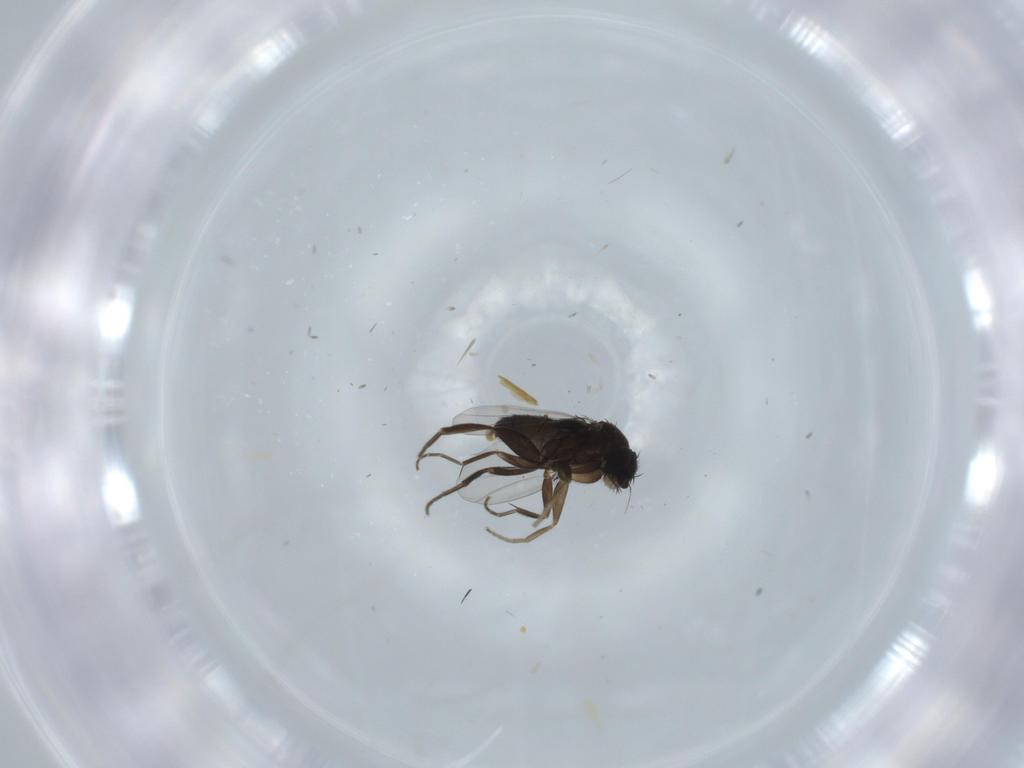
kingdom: Animalia
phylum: Arthropoda
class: Insecta
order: Diptera
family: Phoridae
